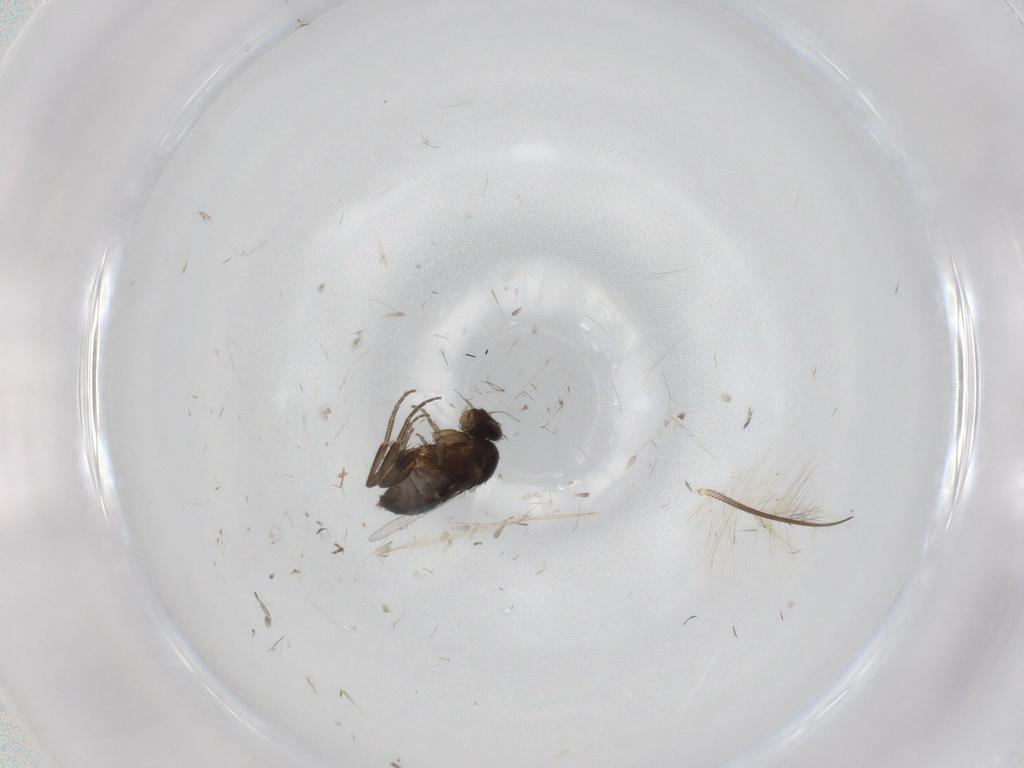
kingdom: Animalia
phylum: Arthropoda
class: Insecta
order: Diptera
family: Phoridae
